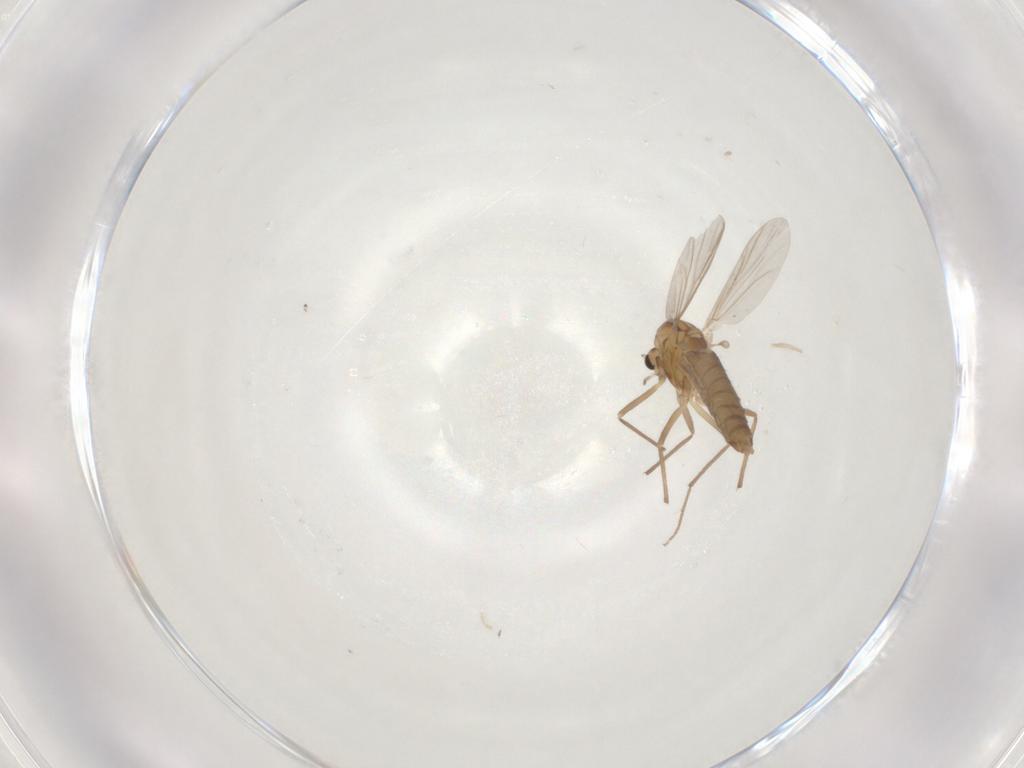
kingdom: Animalia
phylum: Arthropoda
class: Insecta
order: Diptera
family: Chironomidae
